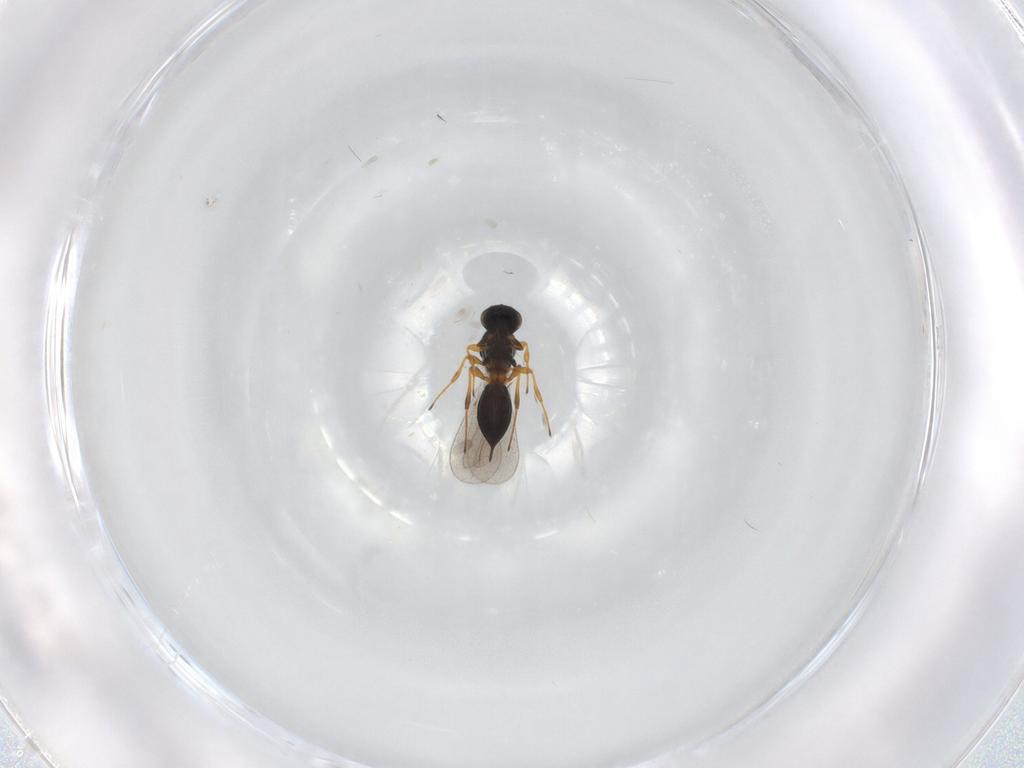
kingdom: Animalia
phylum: Arthropoda
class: Insecta
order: Hymenoptera
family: Platygastridae
